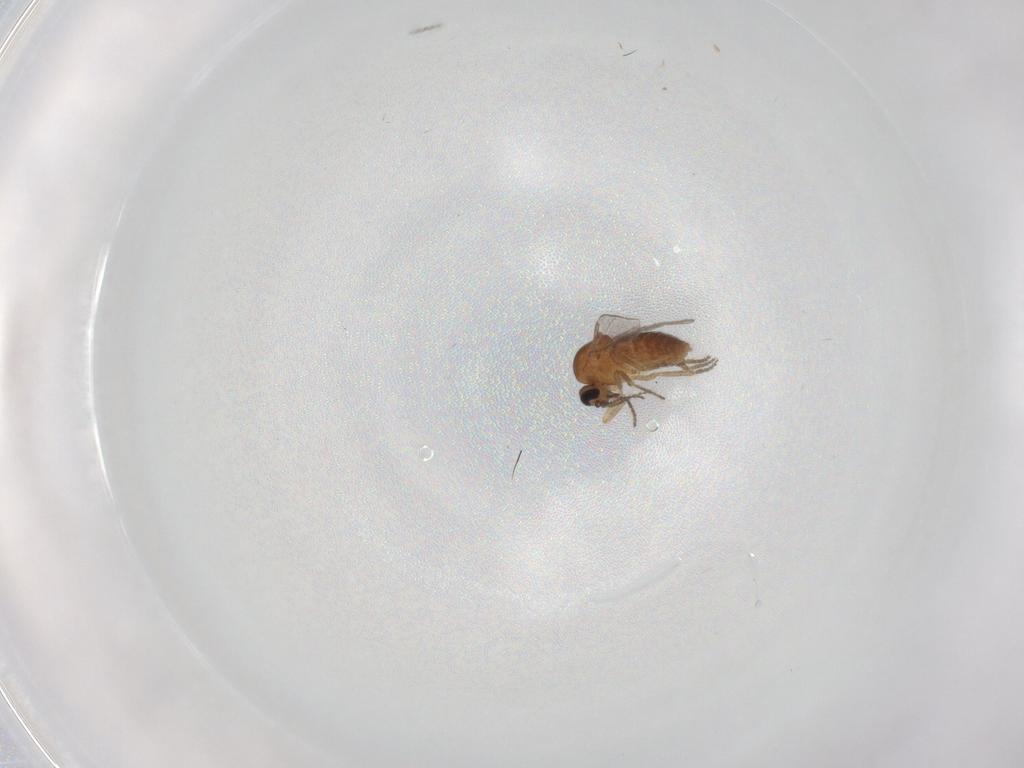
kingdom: Animalia
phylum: Arthropoda
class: Insecta
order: Diptera
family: Ceratopogonidae
